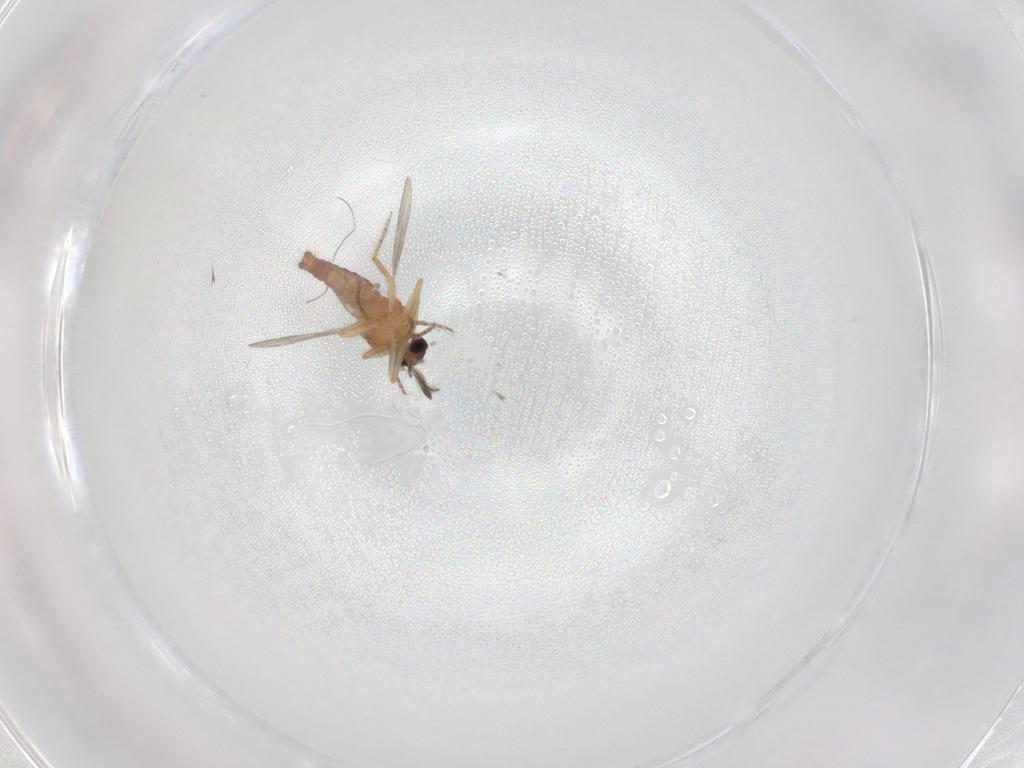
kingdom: Animalia
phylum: Arthropoda
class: Insecta
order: Diptera
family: Ceratopogonidae
